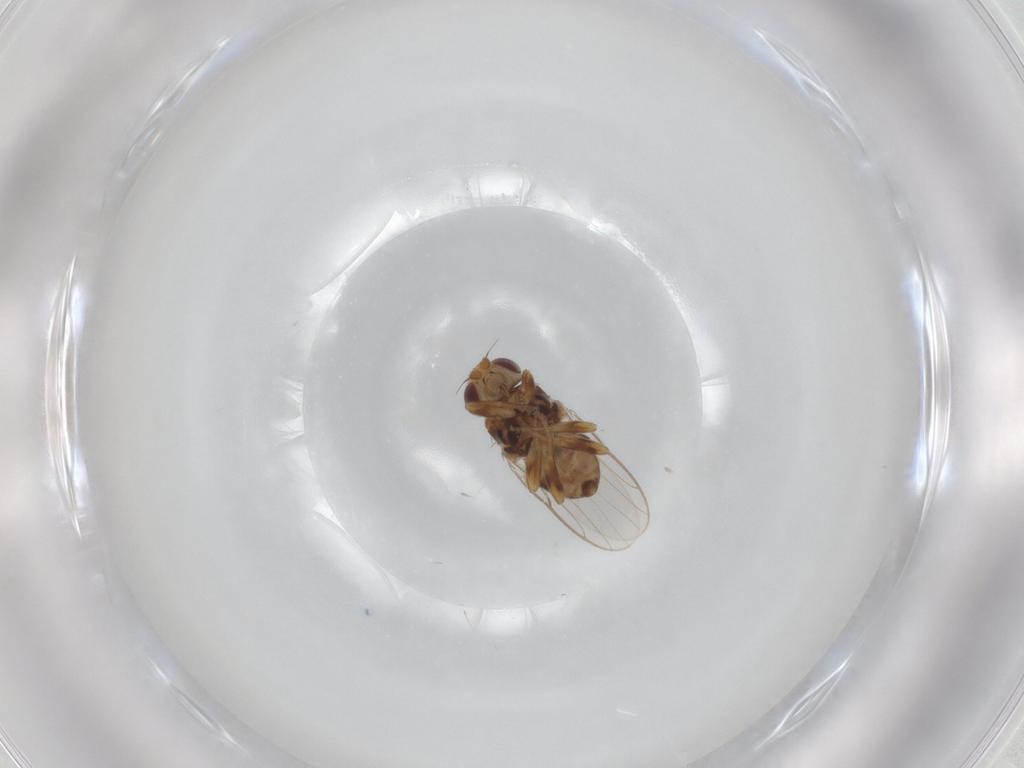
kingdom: Animalia
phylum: Arthropoda
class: Insecta
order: Diptera
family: Chloropidae
